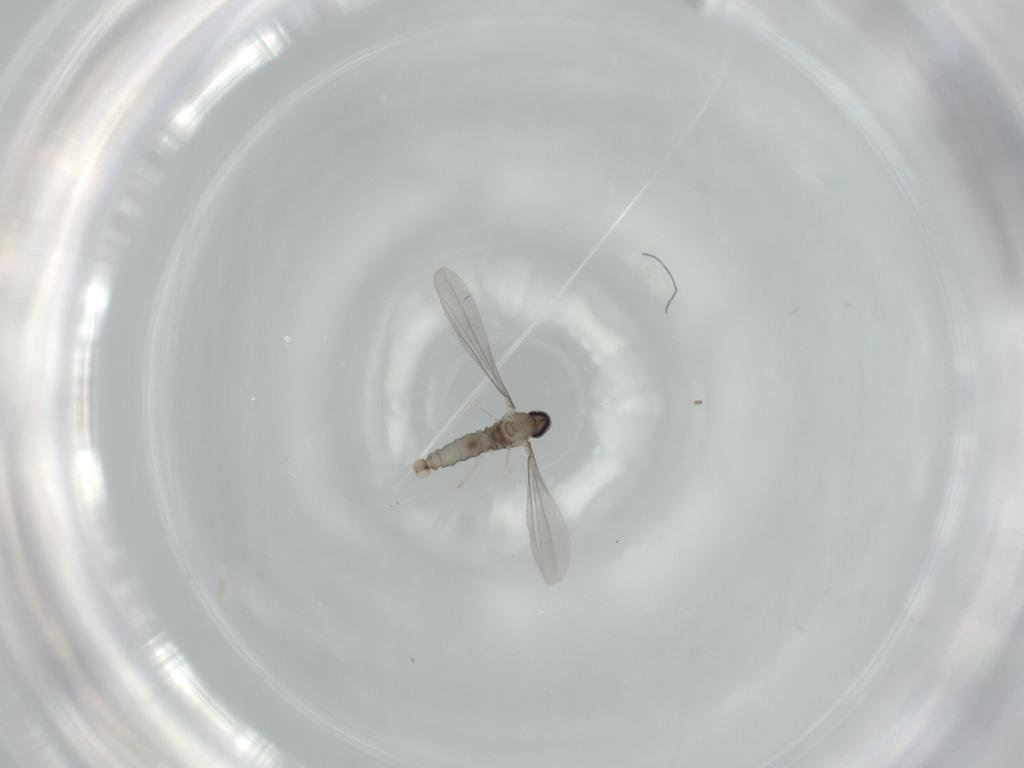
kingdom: Animalia
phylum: Arthropoda
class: Insecta
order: Diptera
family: Cecidomyiidae
